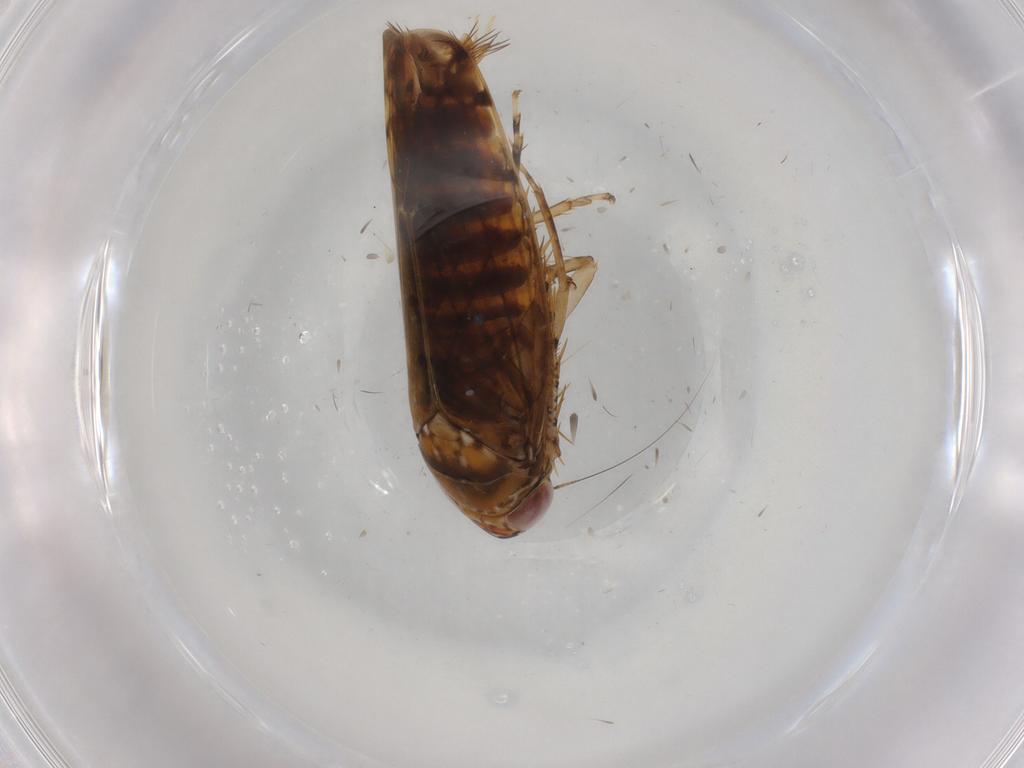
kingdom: Animalia
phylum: Arthropoda
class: Insecta
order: Hemiptera
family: Cicadellidae
